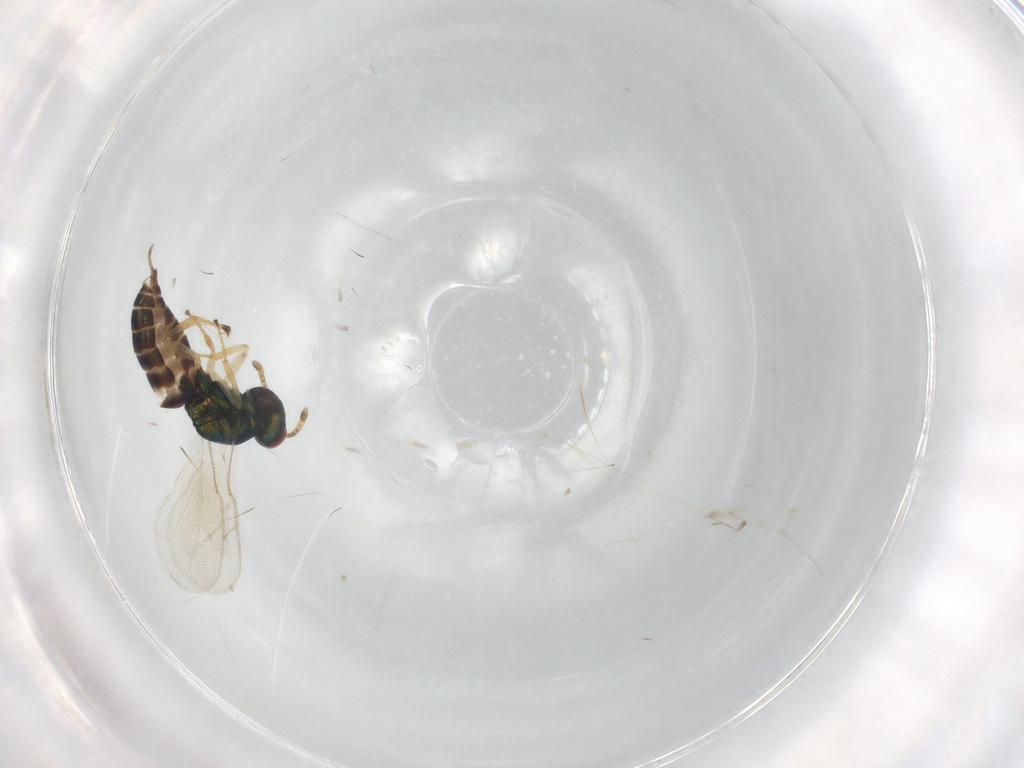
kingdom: Animalia
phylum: Arthropoda
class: Insecta
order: Hymenoptera
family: Pteromalidae
